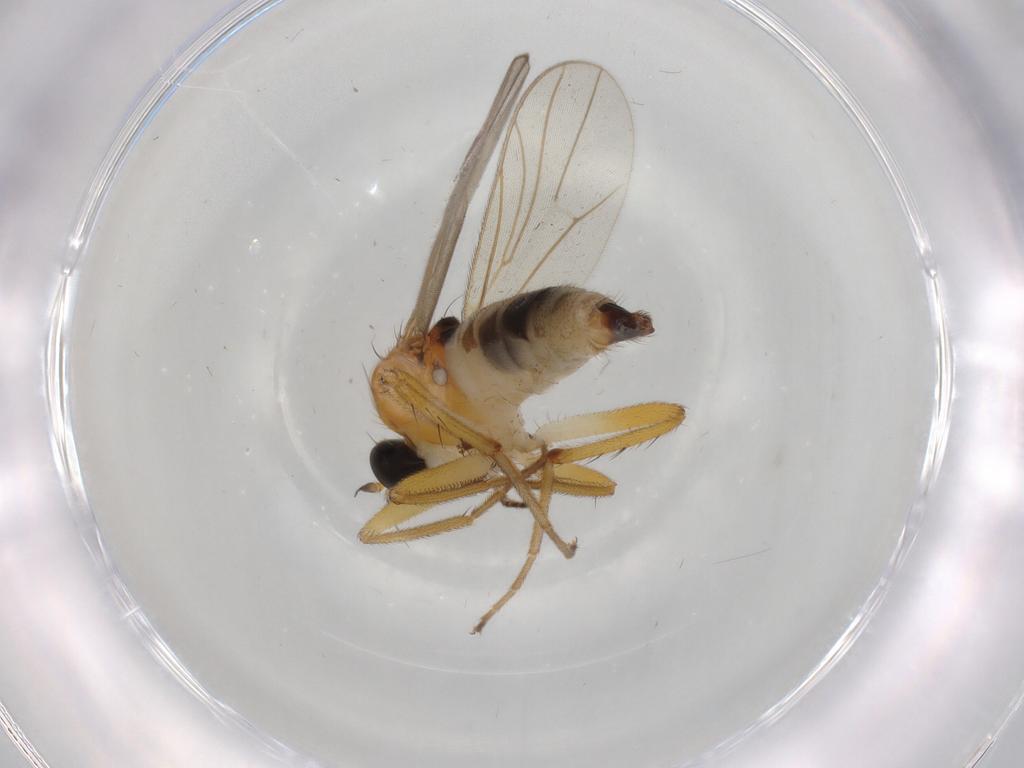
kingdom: Animalia
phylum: Arthropoda
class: Insecta
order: Diptera
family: Hybotidae
